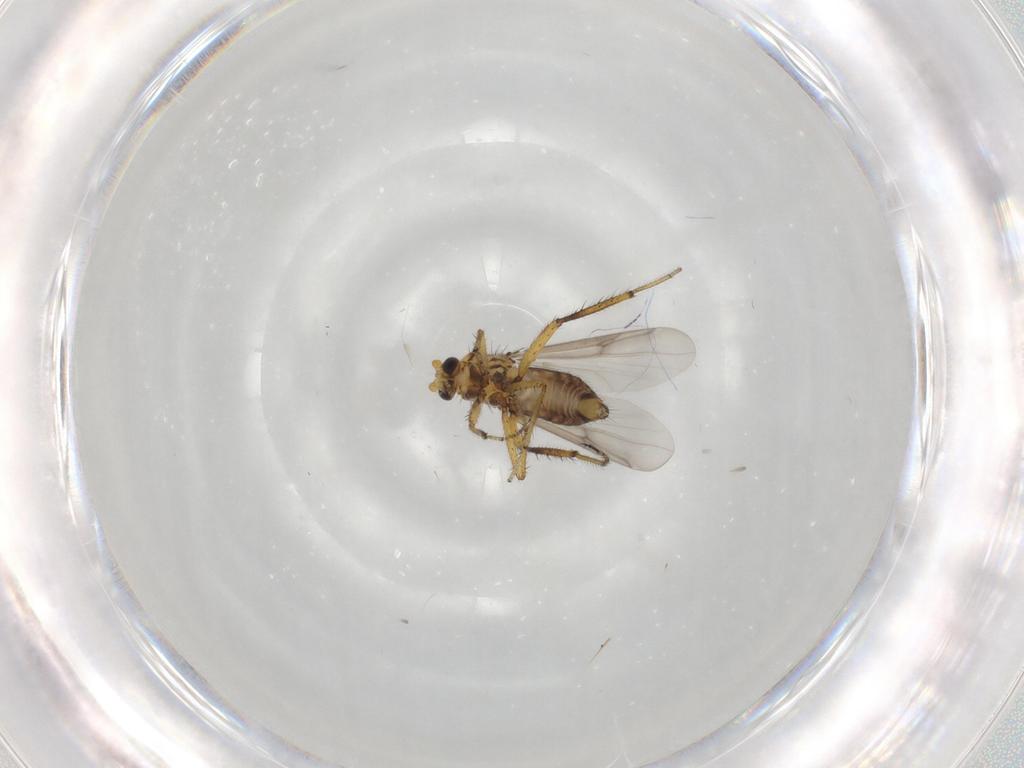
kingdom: Animalia
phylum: Arthropoda
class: Insecta
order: Diptera
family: Ceratopogonidae
